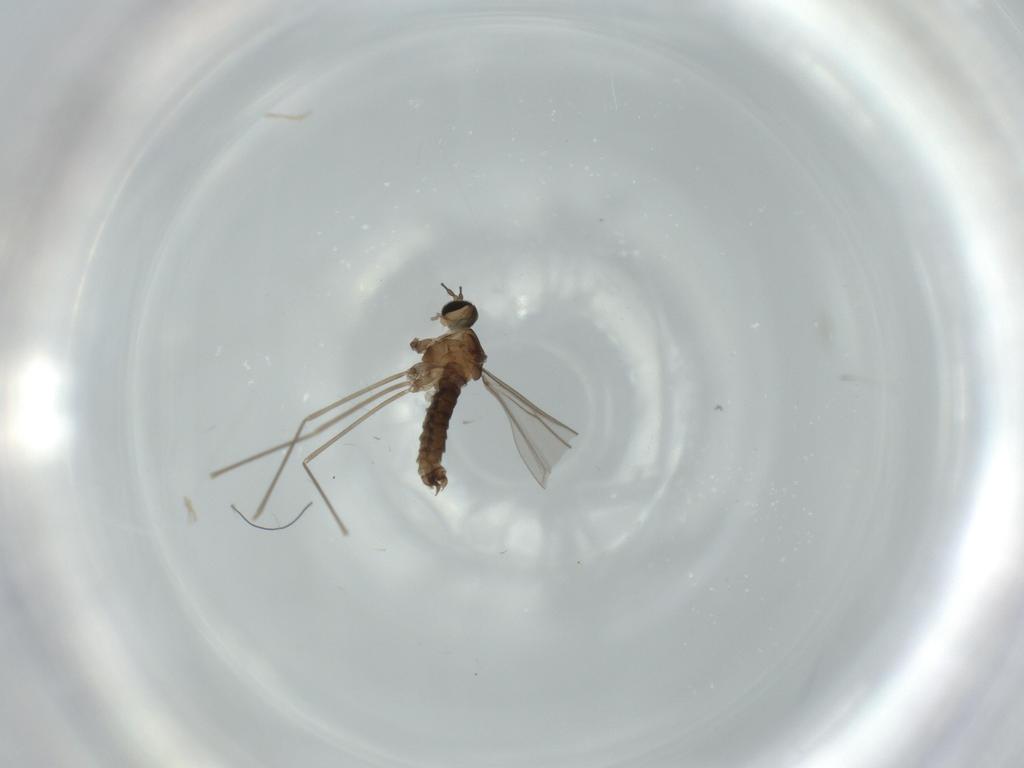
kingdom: Animalia
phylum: Arthropoda
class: Insecta
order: Diptera
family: Cecidomyiidae
